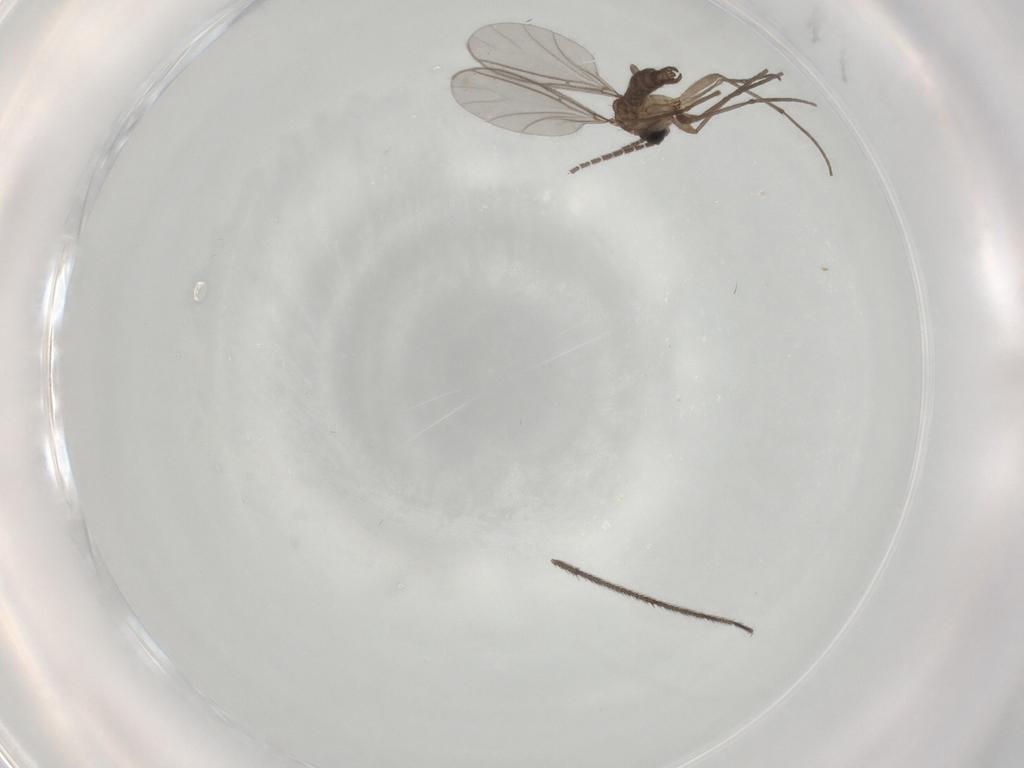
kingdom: Animalia
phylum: Arthropoda
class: Insecta
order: Diptera
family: Sciaridae
